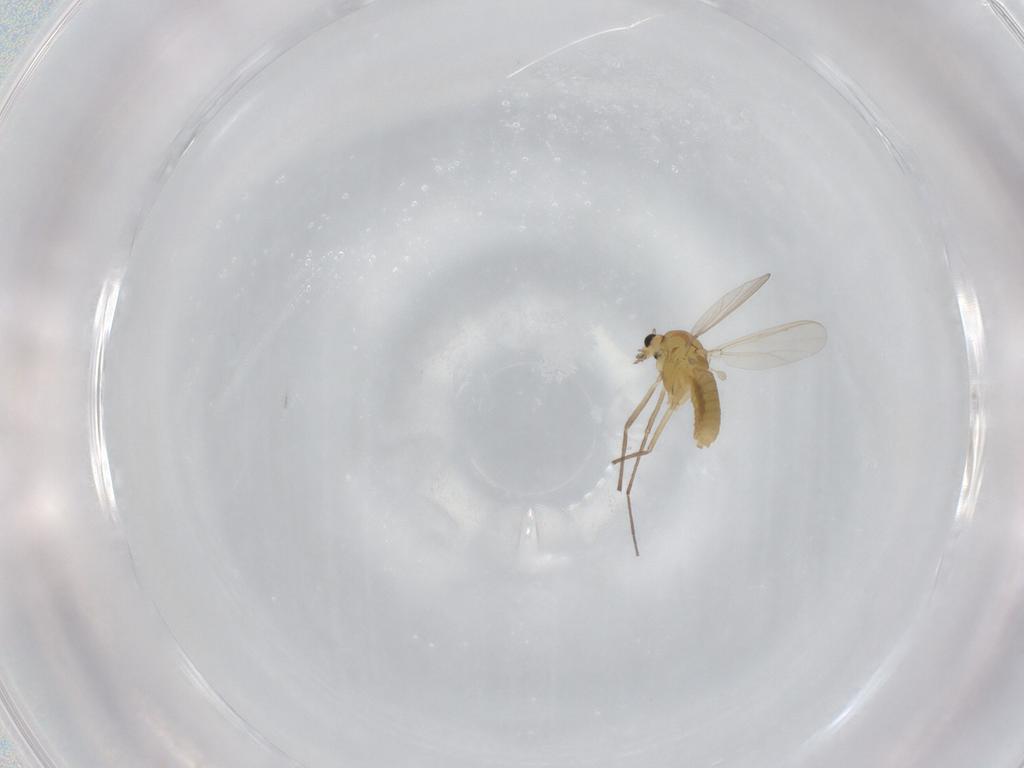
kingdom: Animalia
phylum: Arthropoda
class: Insecta
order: Diptera
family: Chironomidae
